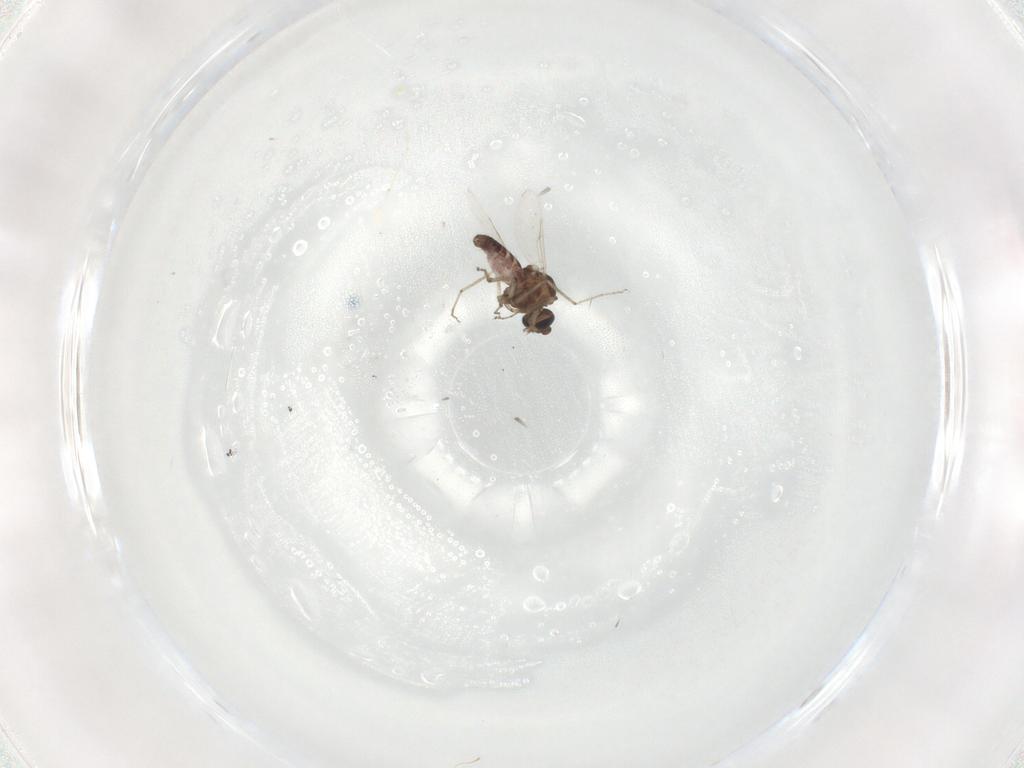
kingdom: Animalia
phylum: Arthropoda
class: Insecta
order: Diptera
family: Ceratopogonidae
